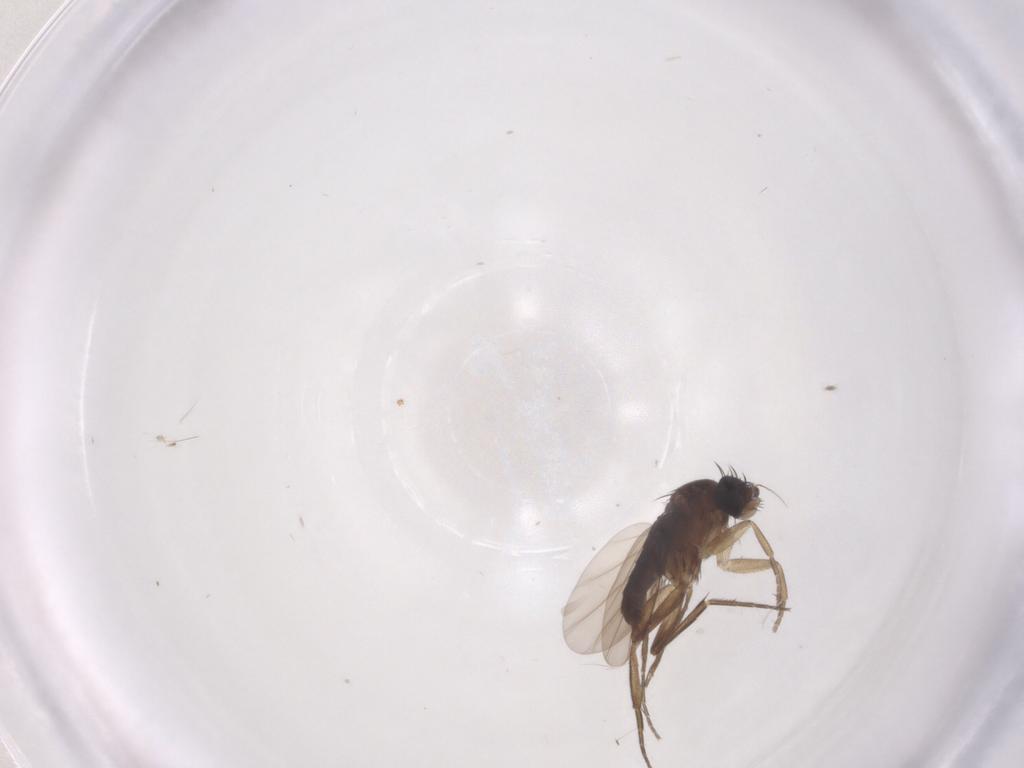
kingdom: Animalia
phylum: Arthropoda
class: Insecta
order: Diptera
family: Phoridae
